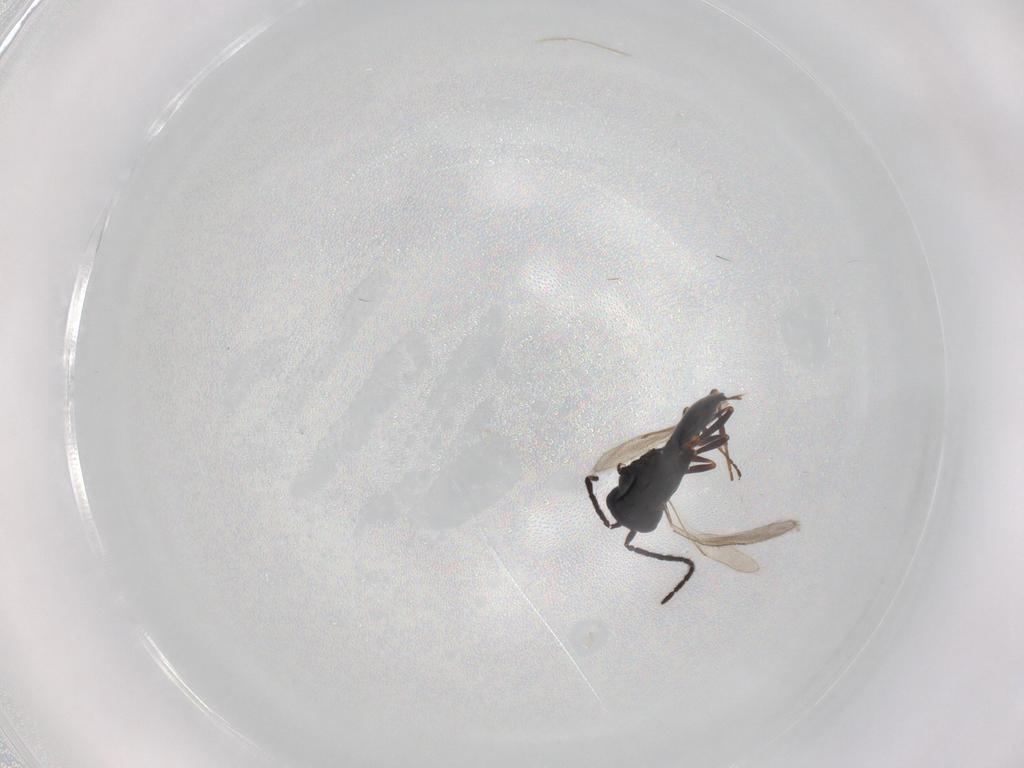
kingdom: Animalia
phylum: Arthropoda
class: Insecta
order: Hymenoptera
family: Scelionidae
